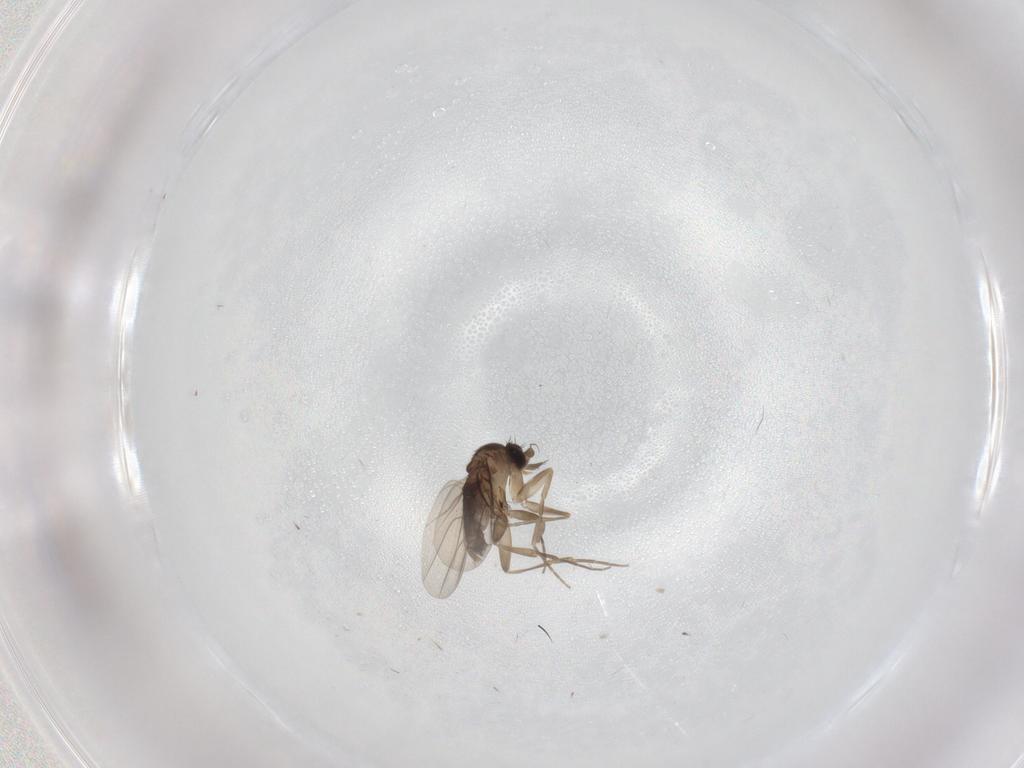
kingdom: Animalia
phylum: Arthropoda
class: Insecta
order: Diptera
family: Phoridae
